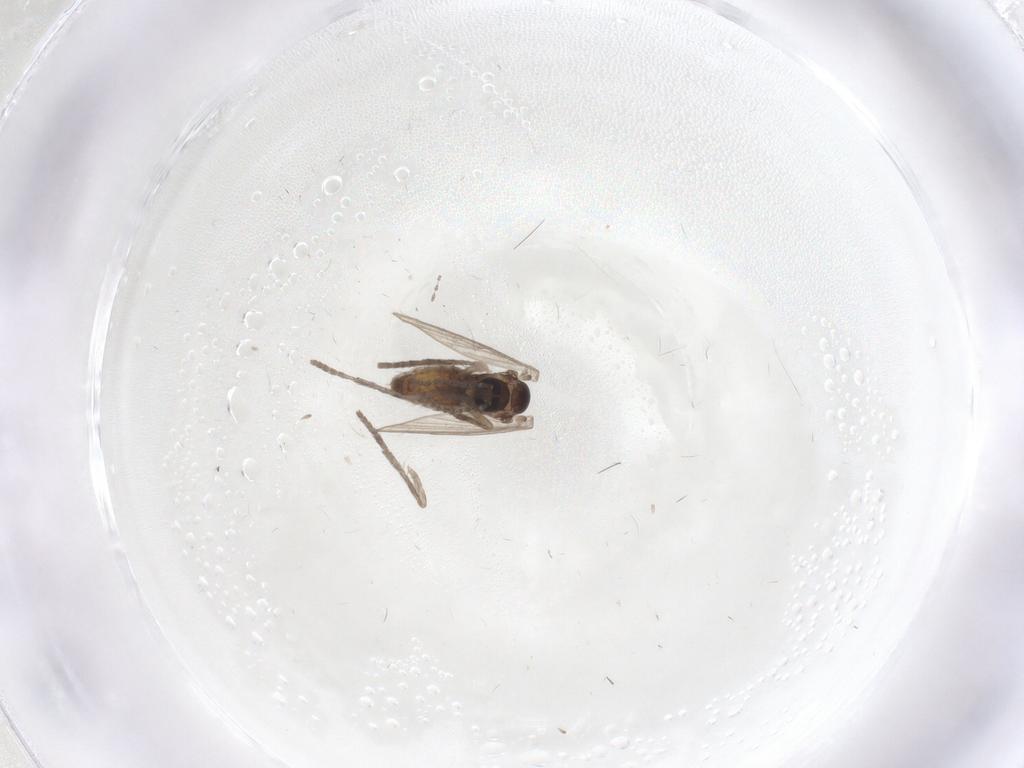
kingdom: Animalia
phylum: Arthropoda
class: Insecta
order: Diptera
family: Psychodidae
